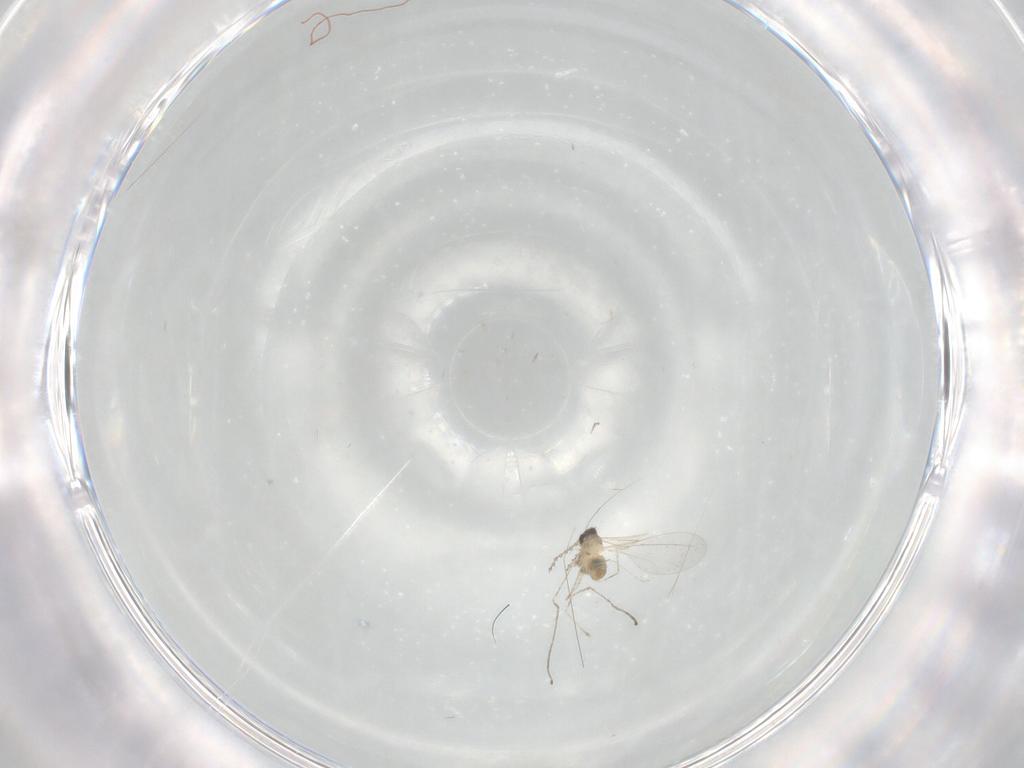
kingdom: Animalia
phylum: Arthropoda
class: Insecta
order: Diptera
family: Cecidomyiidae
